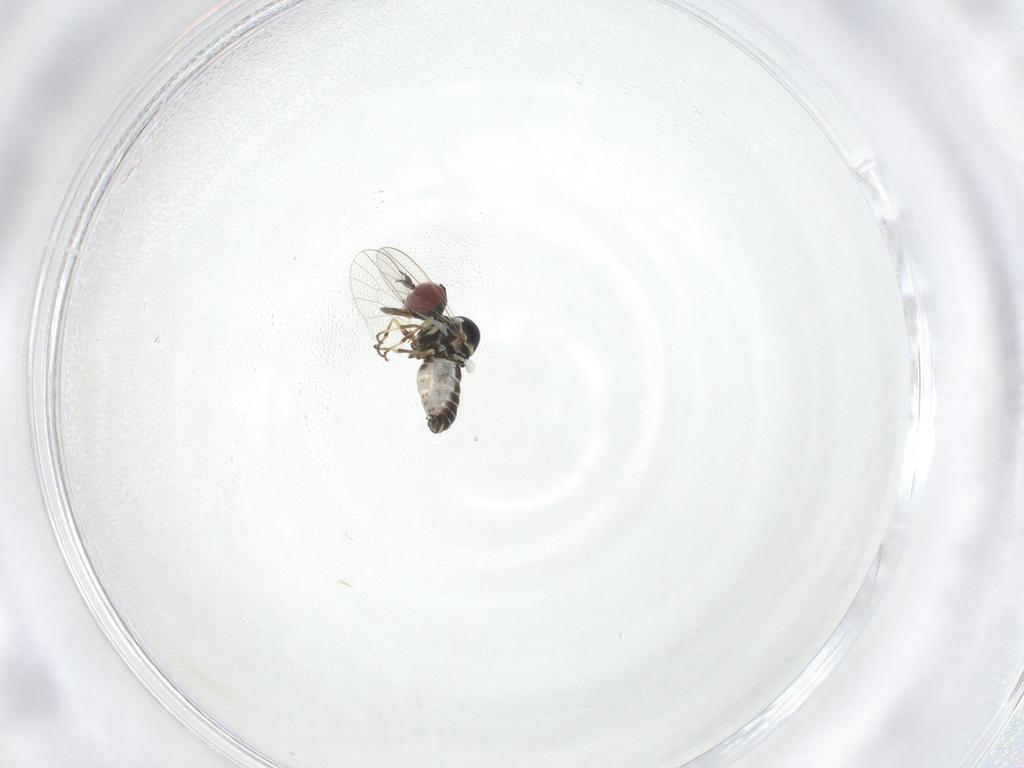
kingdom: Animalia
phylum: Arthropoda
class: Insecta
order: Diptera
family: Mythicomyiidae
